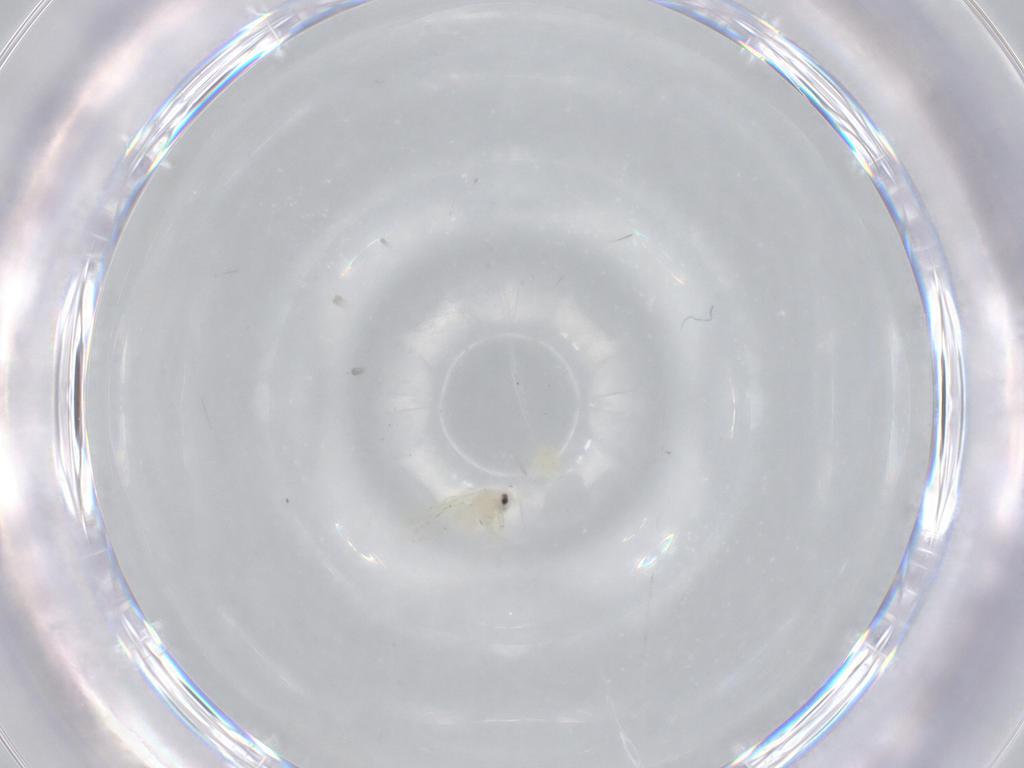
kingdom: Animalia
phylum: Arthropoda
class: Insecta
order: Hemiptera
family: Aleyrodidae
